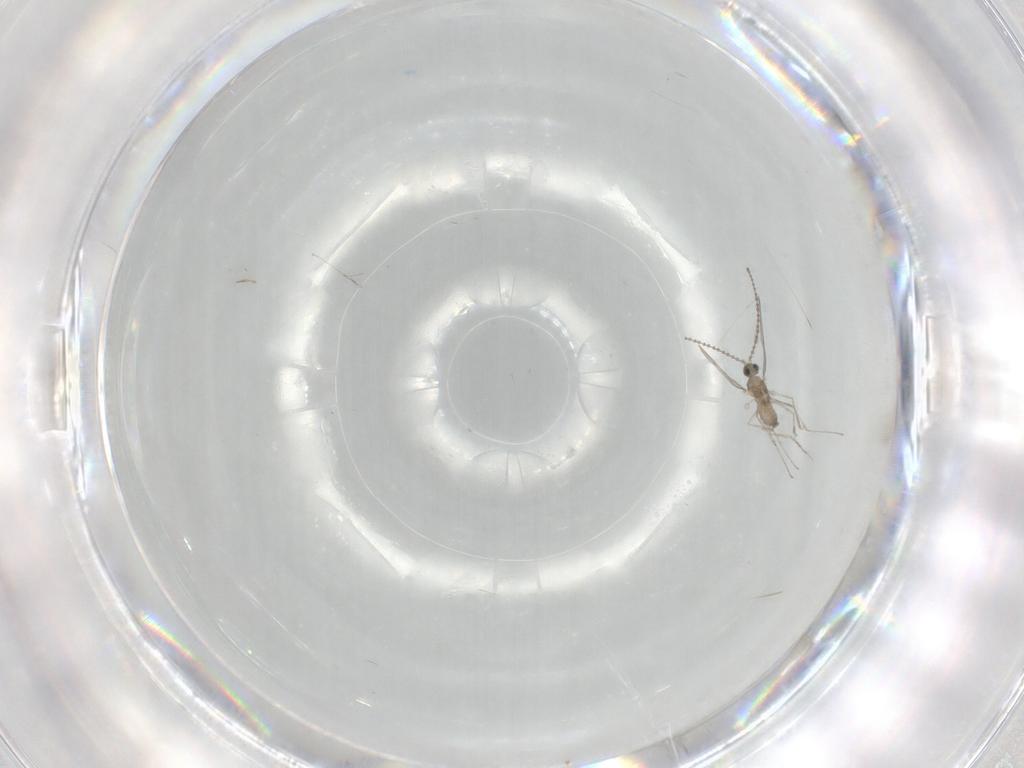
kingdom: Animalia
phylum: Arthropoda
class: Insecta
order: Diptera
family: Cecidomyiidae
